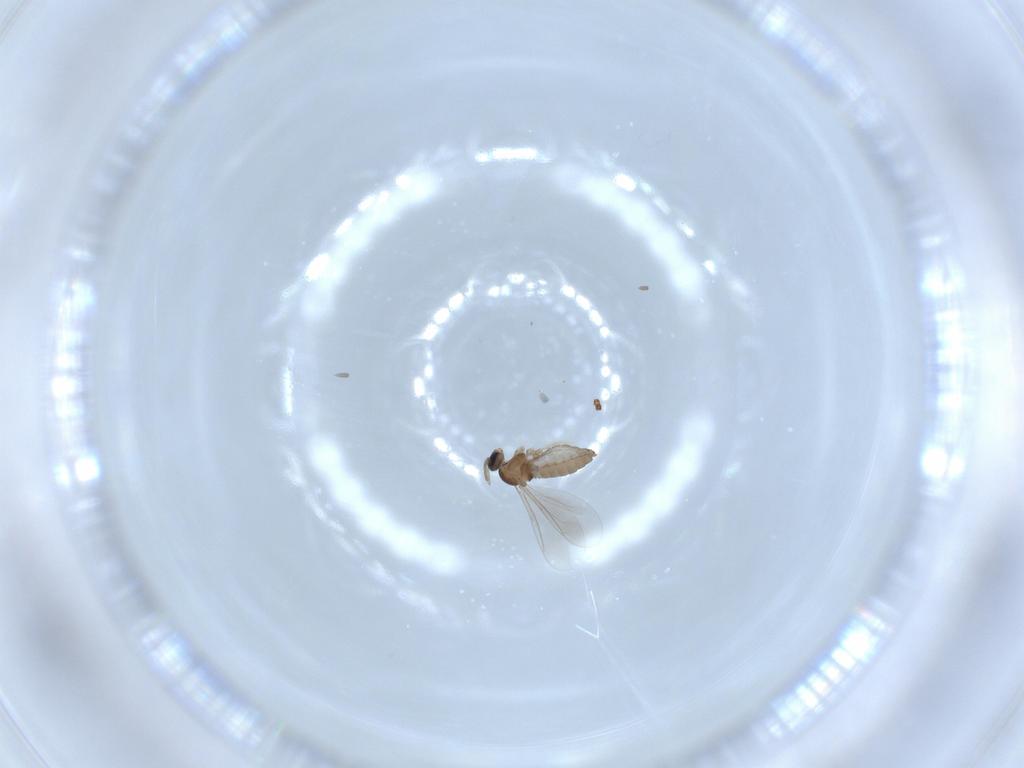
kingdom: Animalia
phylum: Arthropoda
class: Insecta
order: Diptera
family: Cecidomyiidae
